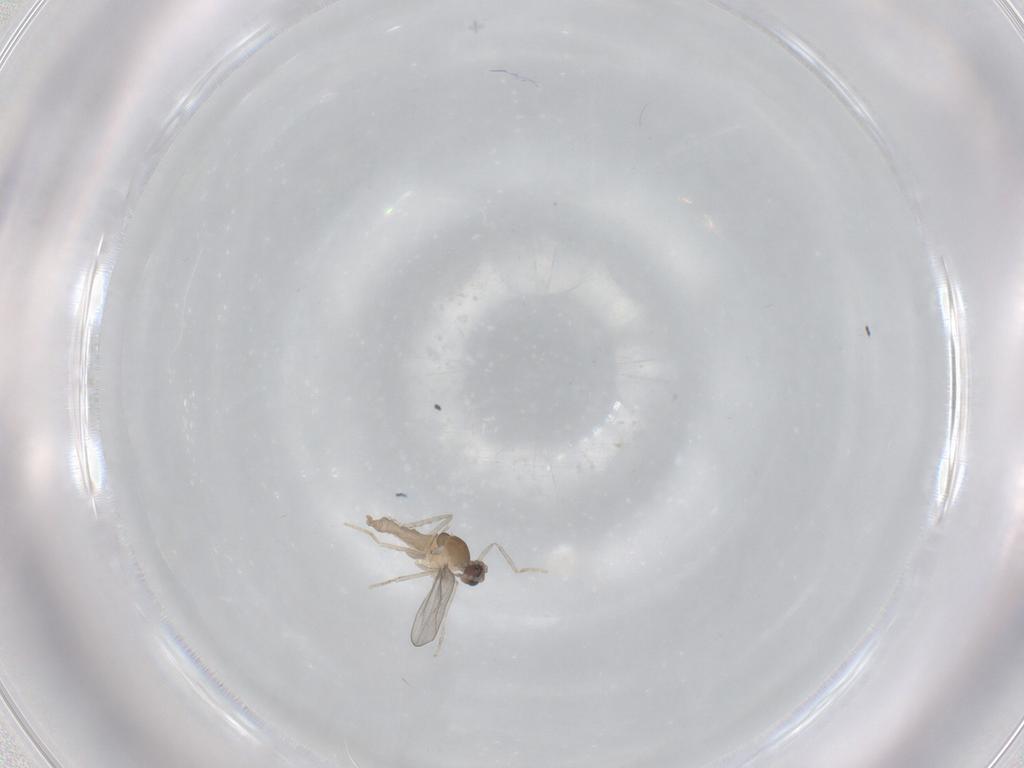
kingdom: Animalia
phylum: Arthropoda
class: Insecta
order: Diptera
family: Cecidomyiidae
